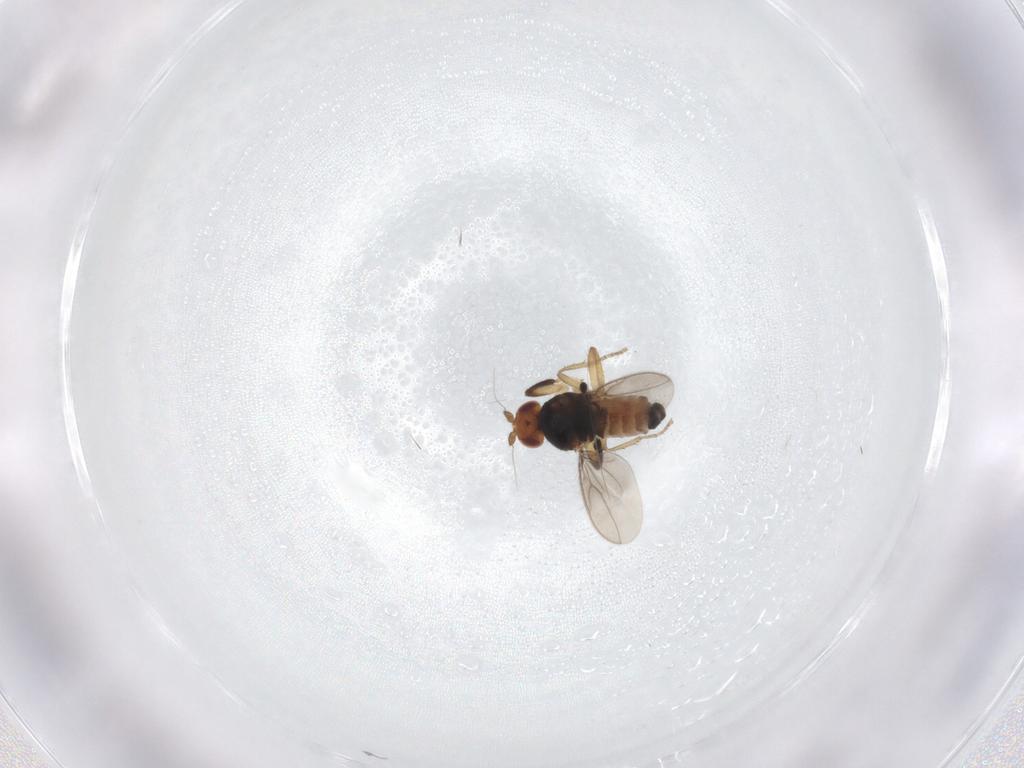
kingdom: Animalia
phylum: Arthropoda
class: Insecta
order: Diptera
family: Sphaeroceridae
